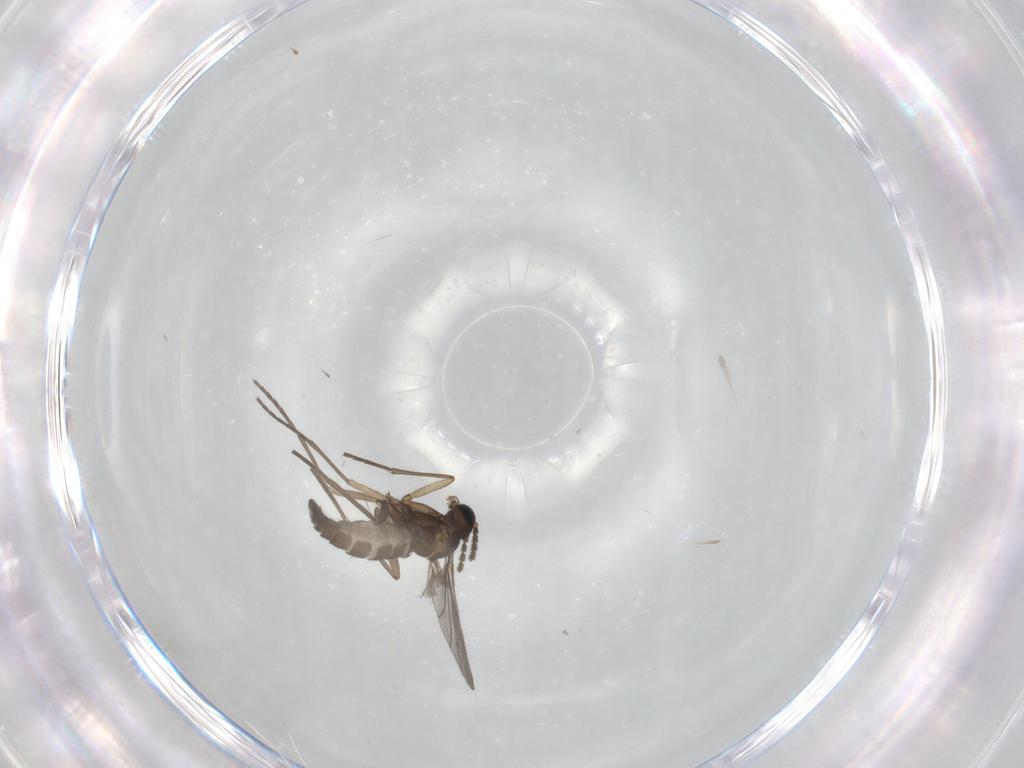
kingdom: Animalia
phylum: Arthropoda
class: Insecta
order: Diptera
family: Sciaridae
